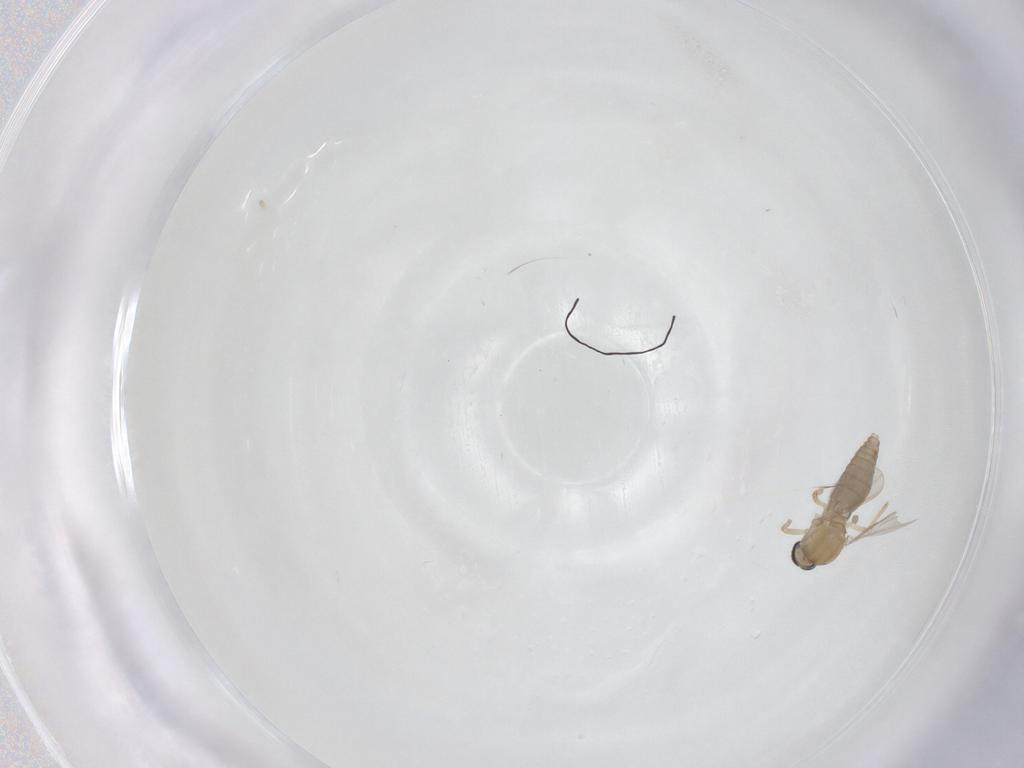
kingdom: Animalia
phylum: Arthropoda
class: Insecta
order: Diptera
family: Ceratopogonidae
